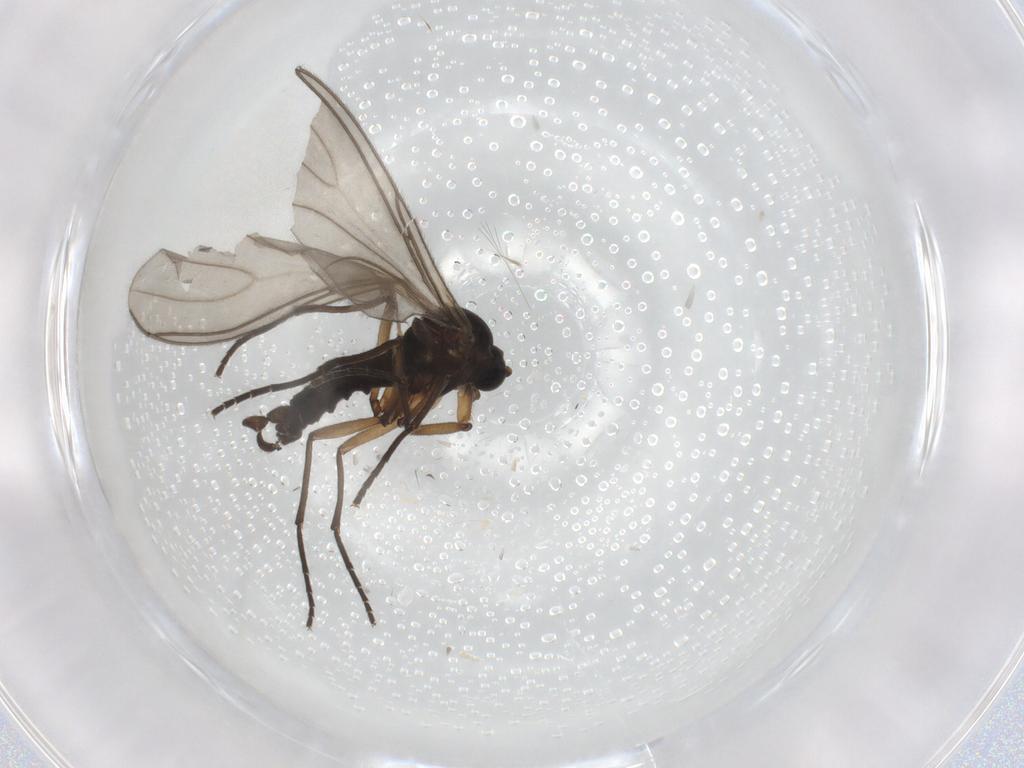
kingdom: Animalia
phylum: Arthropoda
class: Insecta
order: Diptera
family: Sciaridae
